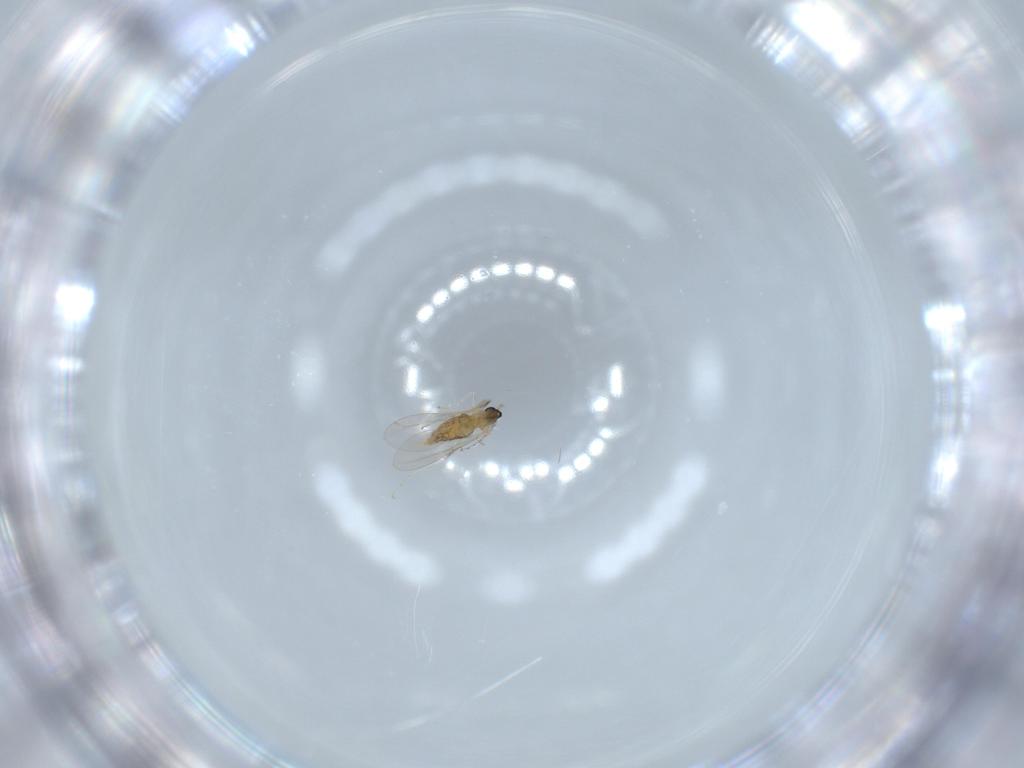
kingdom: Animalia
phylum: Arthropoda
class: Insecta
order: Diptera
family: Cecidomyiidae
